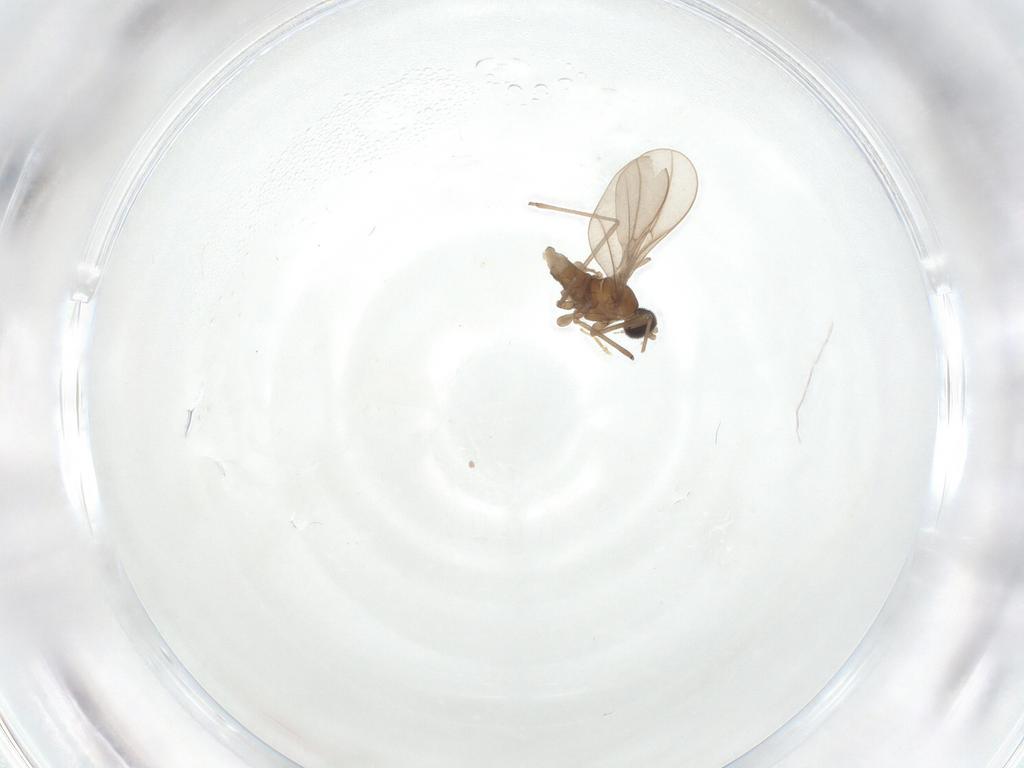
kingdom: Animalia
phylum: Arthropoda
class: Insecta
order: Diptera
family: Cecidomyiidae
